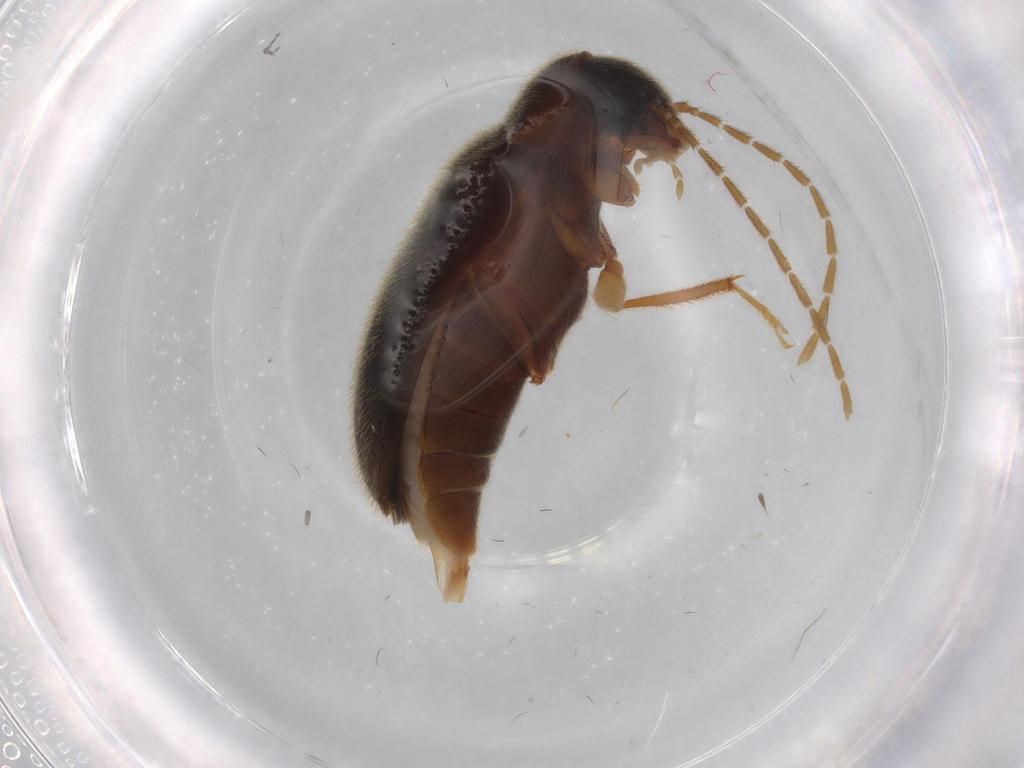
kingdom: Animalia
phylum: Arthropoda
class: Insecta
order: Coleoptera
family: Ptilodactylidae
